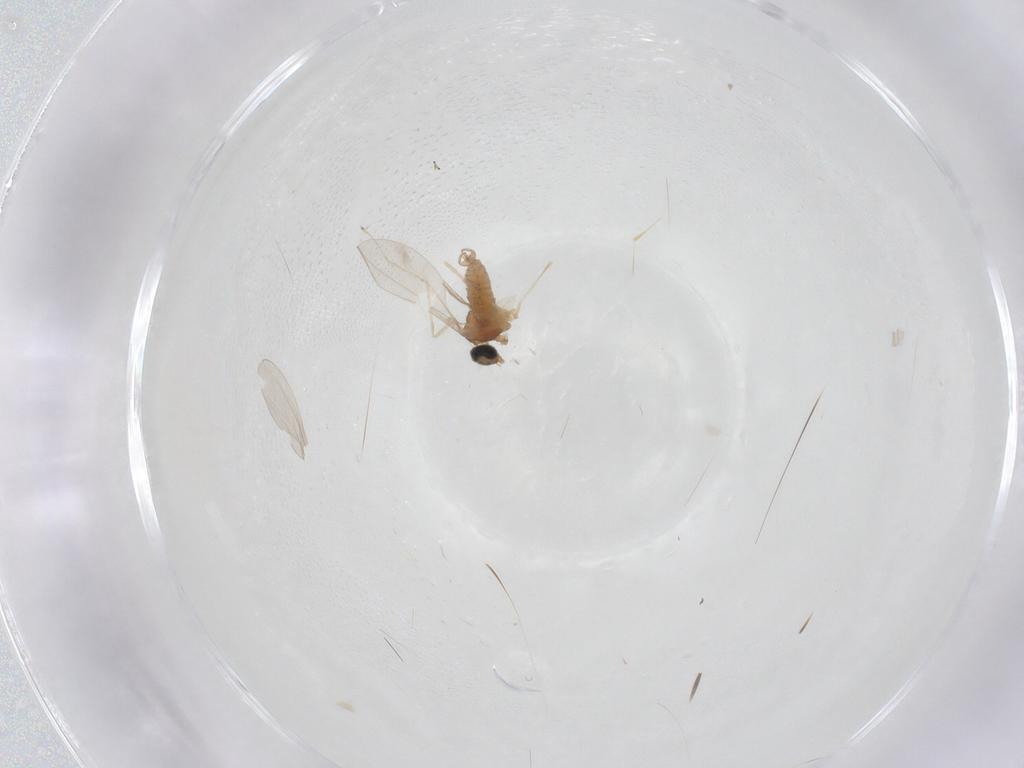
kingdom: Animalia
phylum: Arthropoda
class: Insecta
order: Diptera
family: Cecidomyiidae
